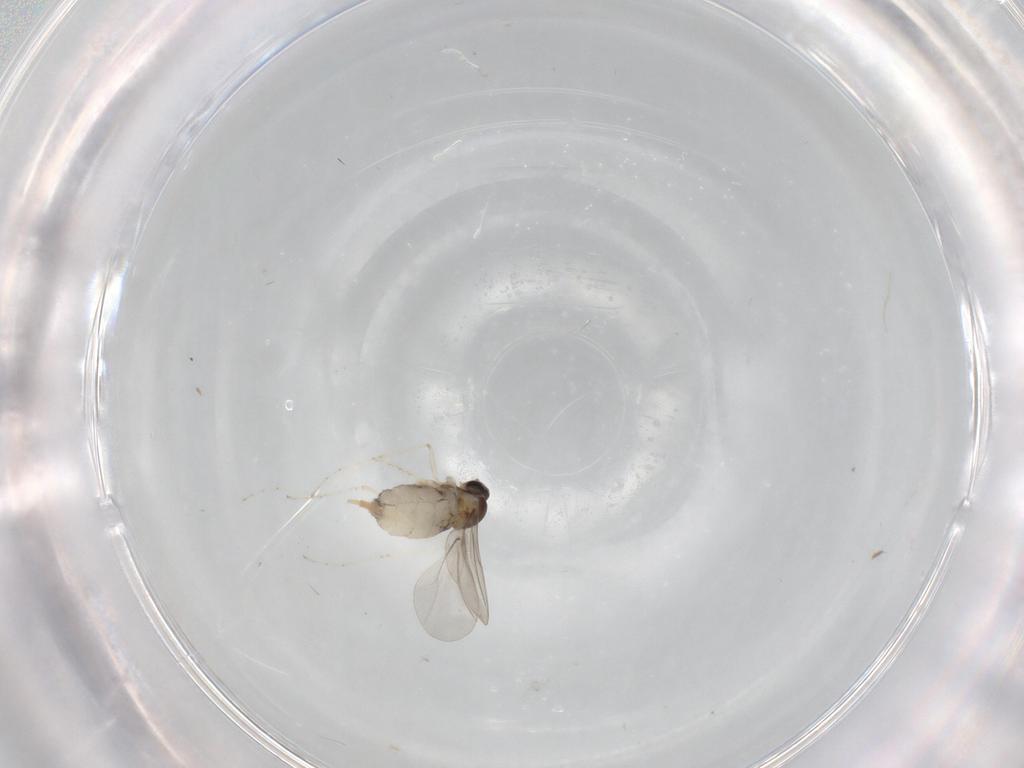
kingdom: Animalia
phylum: Arthropoda
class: Insecta
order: Diptera
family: Cecidomyiidae
